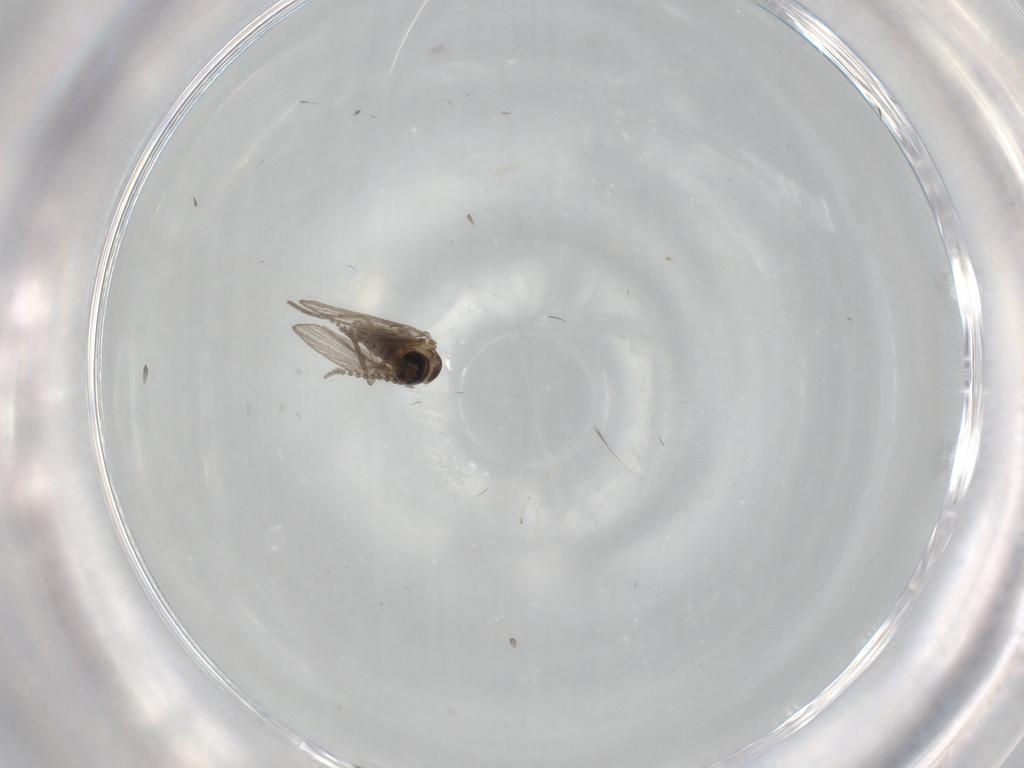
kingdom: Animalia
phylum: Arthropoda
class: Insecta
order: Diptera
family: Psychodidae
